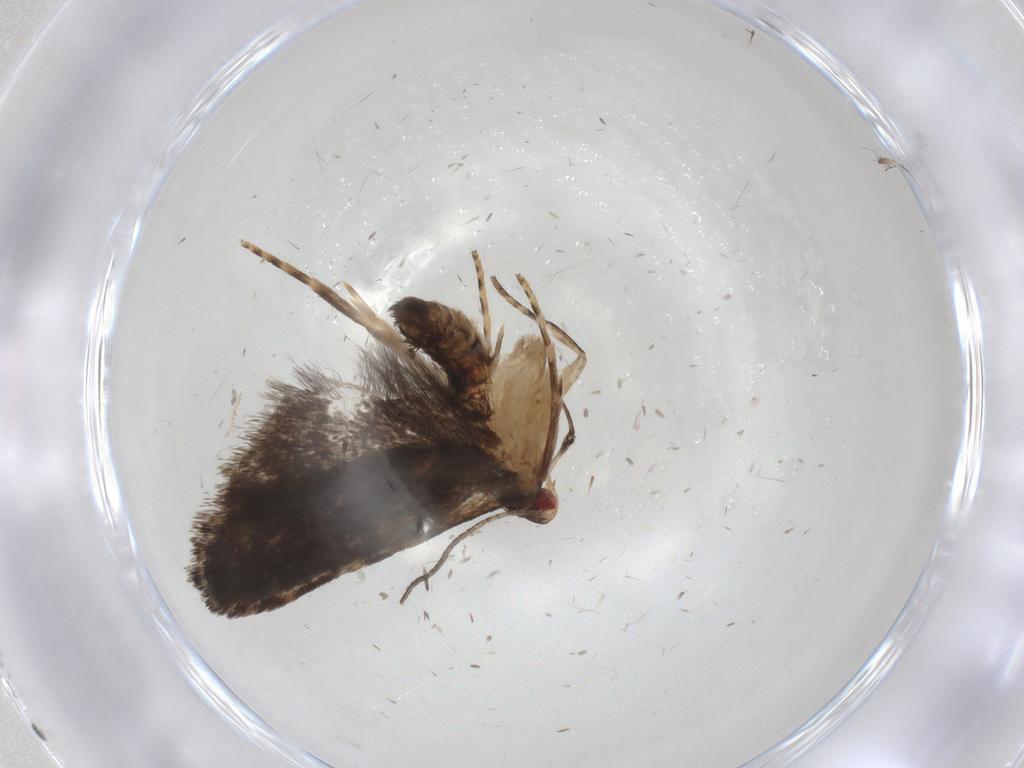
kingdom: Animalia
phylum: Arthropoda
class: Insecta
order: Lepidoptera
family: Gelechiidae
